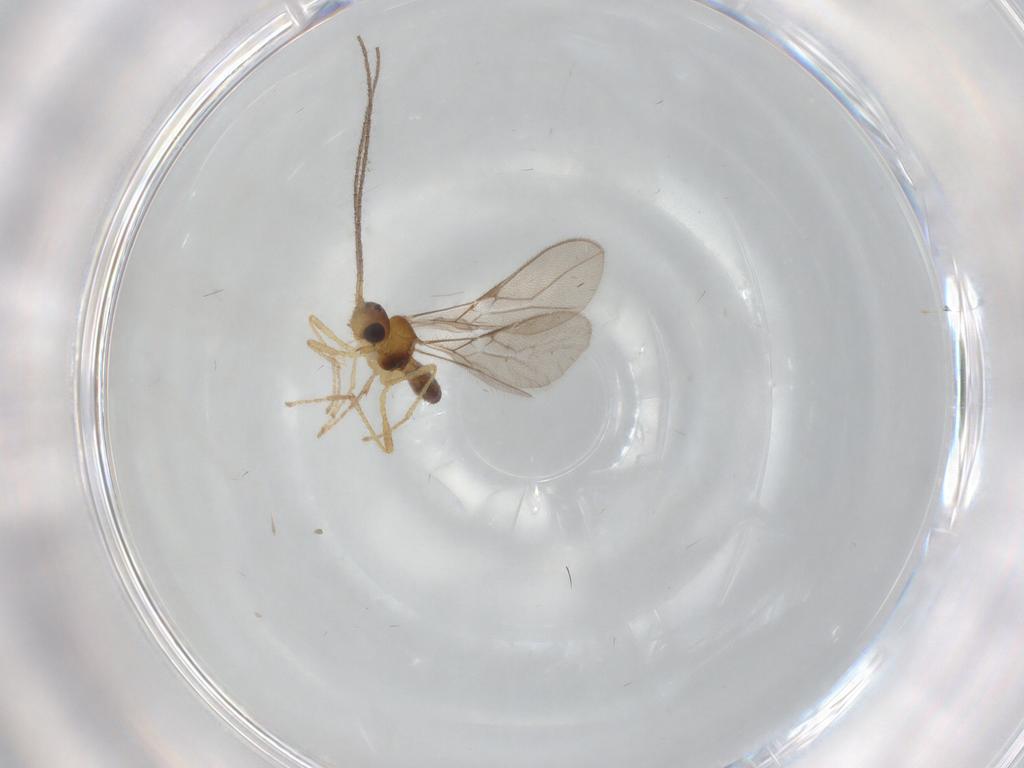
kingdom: Animalia
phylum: Arthropoda
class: Insecta
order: Hymenoptera
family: Braconidae
